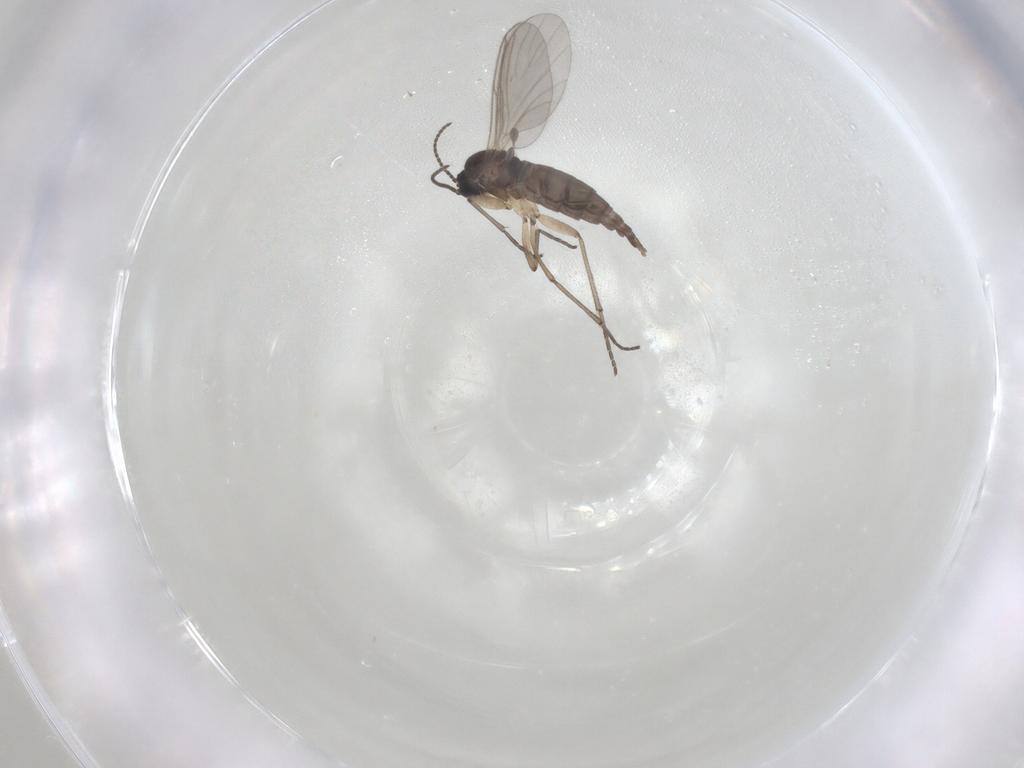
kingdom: Animalia
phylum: Arthropoda
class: Insecta
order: Diptera
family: Sciaridae
